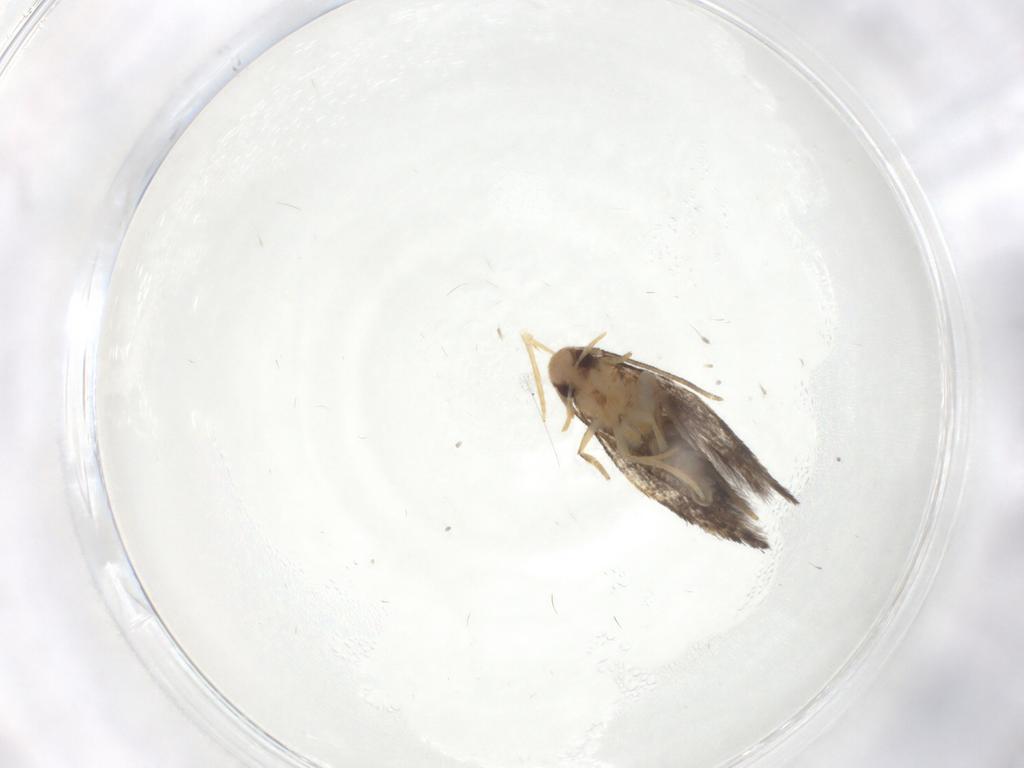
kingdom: Animalia
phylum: Arthropoda
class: Insecta
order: Lepidoptera
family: Gelechiidae
